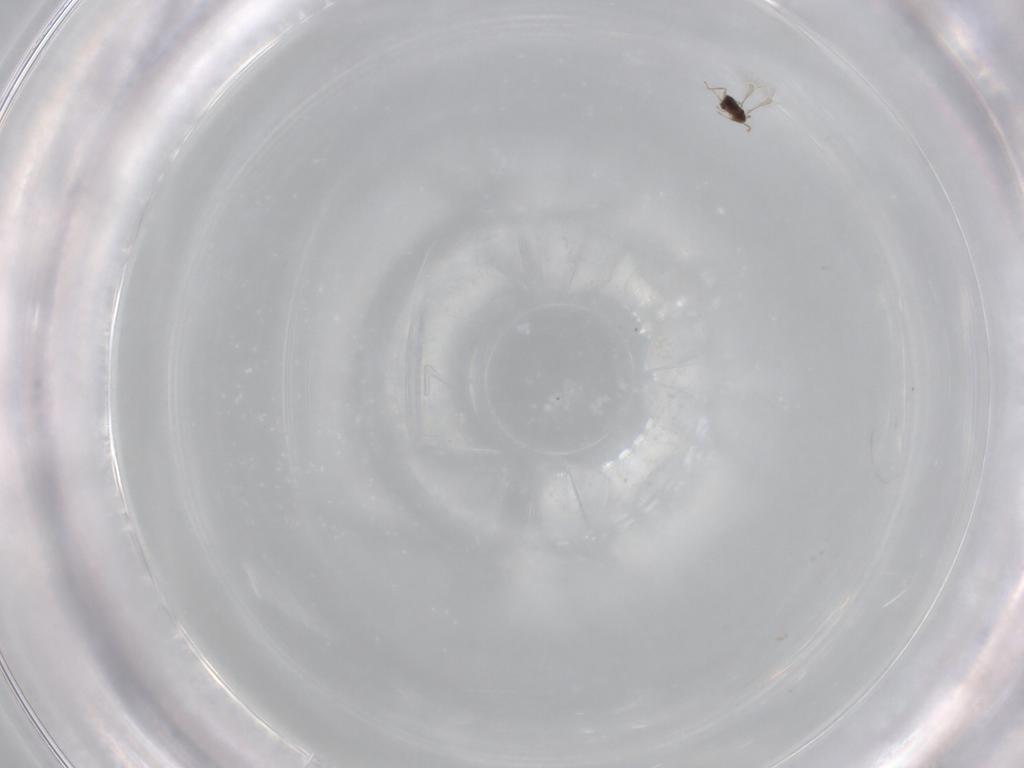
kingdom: Animalia
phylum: Arthropoda
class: Insecta
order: Hymenoptera
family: Mymaridae
